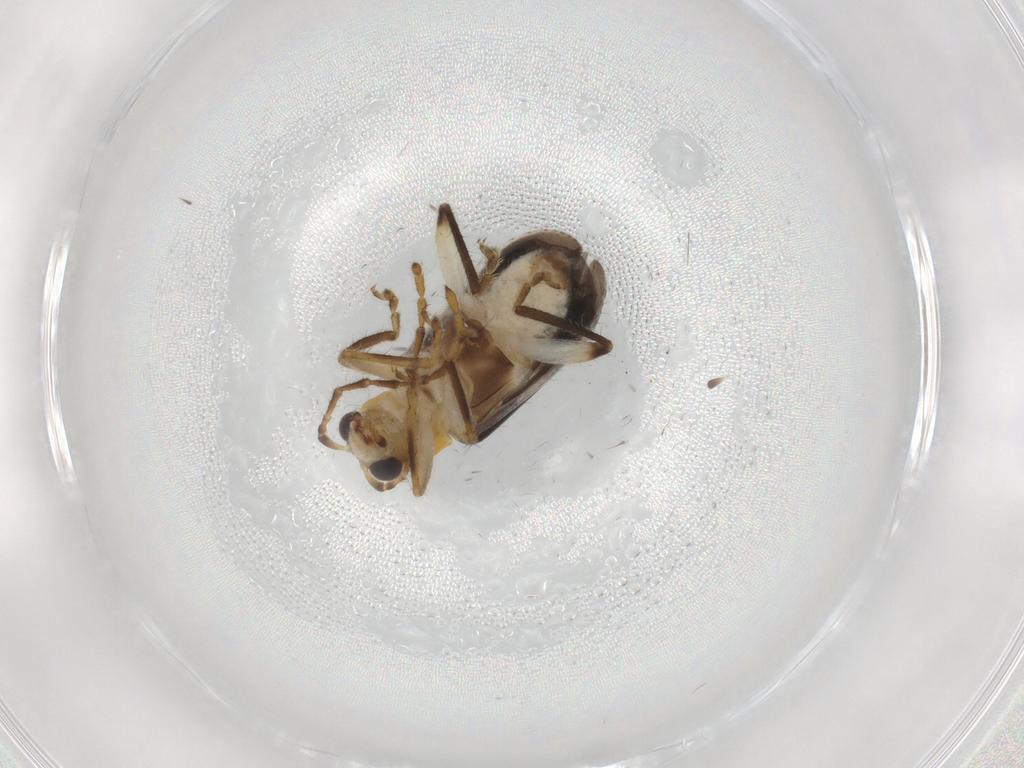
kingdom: Animalia
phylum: Arthropoda
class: Insecta
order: Coleoptera
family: Chrysomelidae
